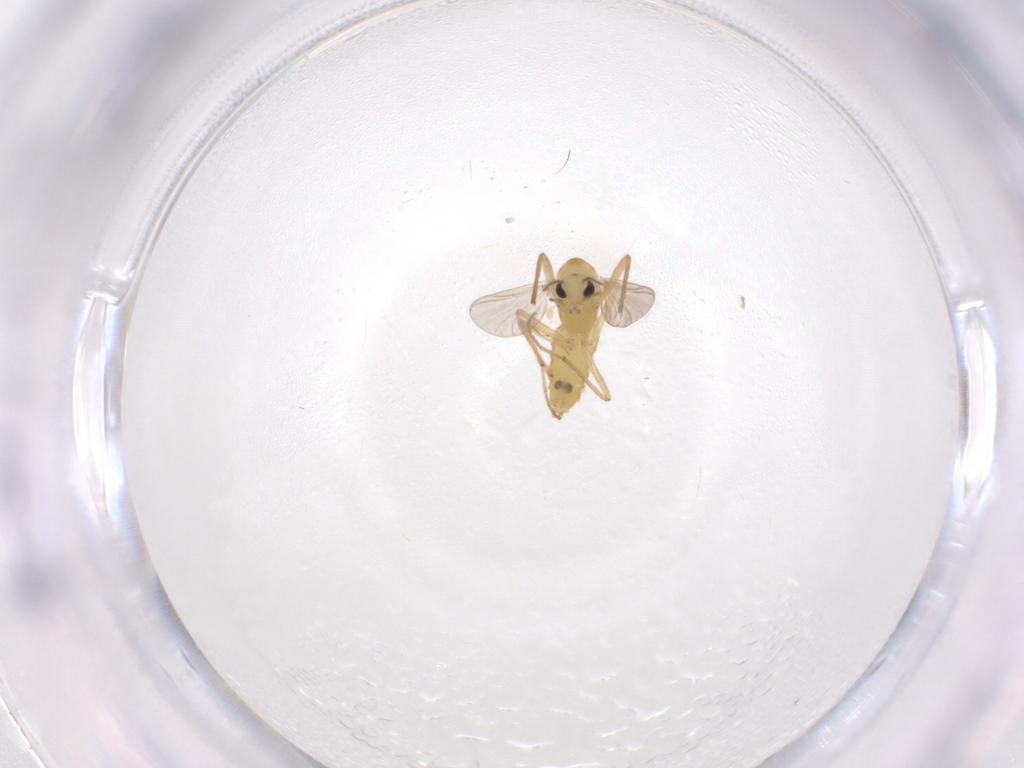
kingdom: Animalia
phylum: Arthropoda
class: Insecta
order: Diptera
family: Chironomidae
